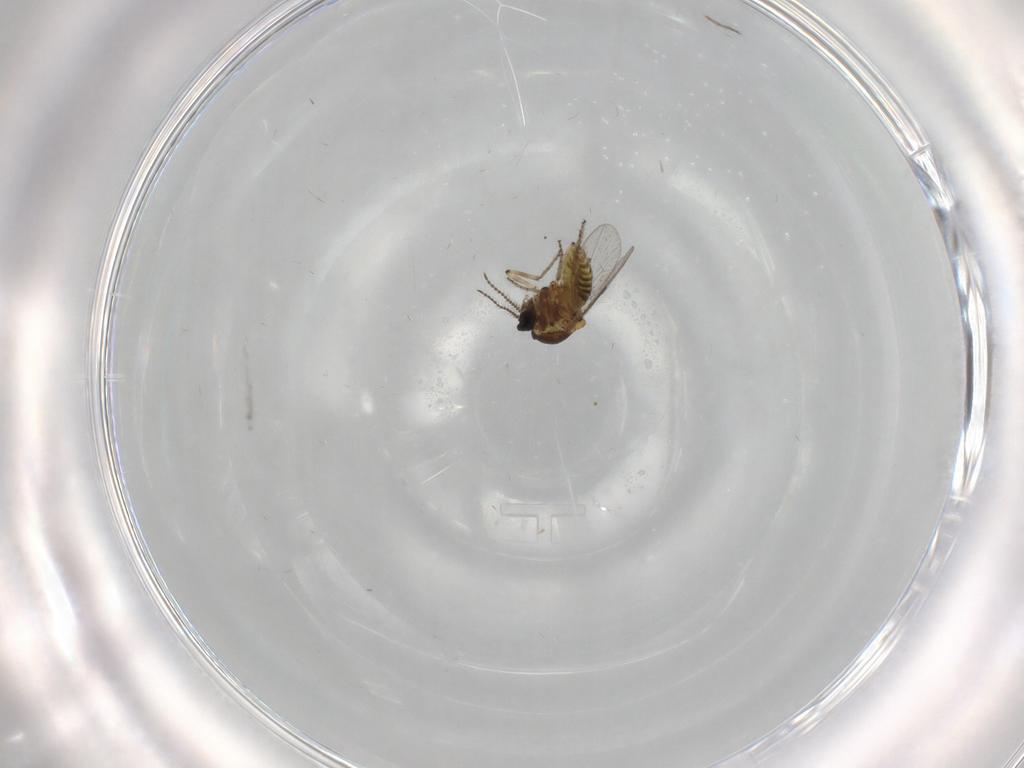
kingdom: Animalia
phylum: Arthropoda
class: Insecta
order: Diptera
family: Ceratopogonidae
